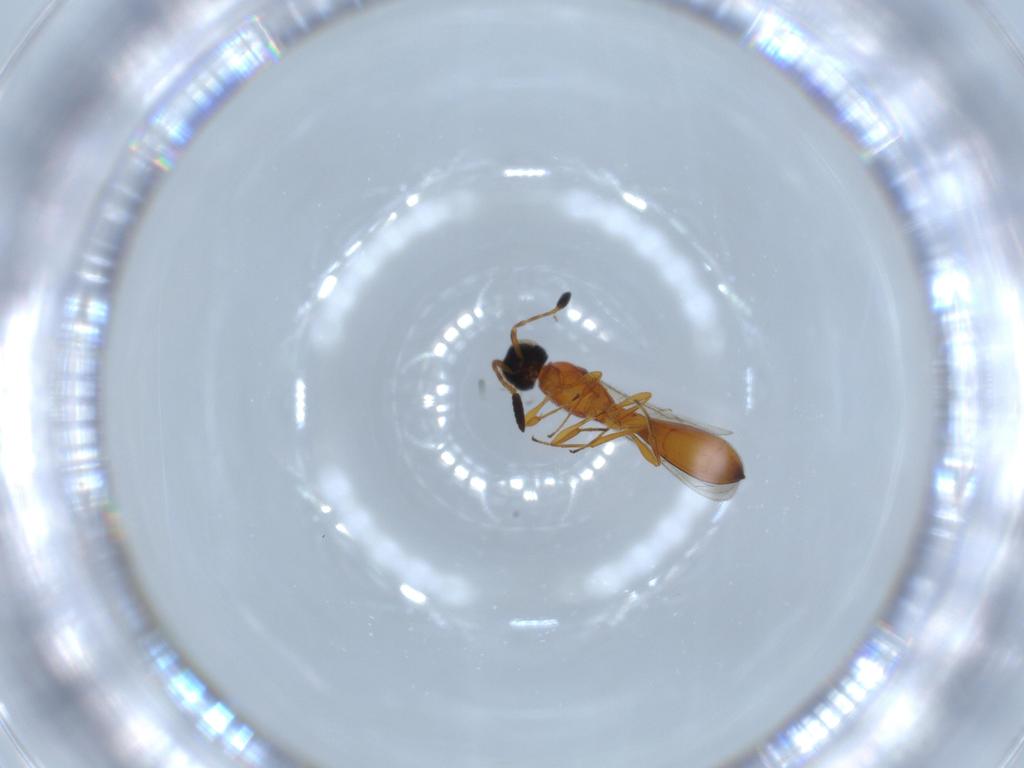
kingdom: Animalia
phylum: Arthropoda
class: Insecta
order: Hymenoptera
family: Scelionidae
